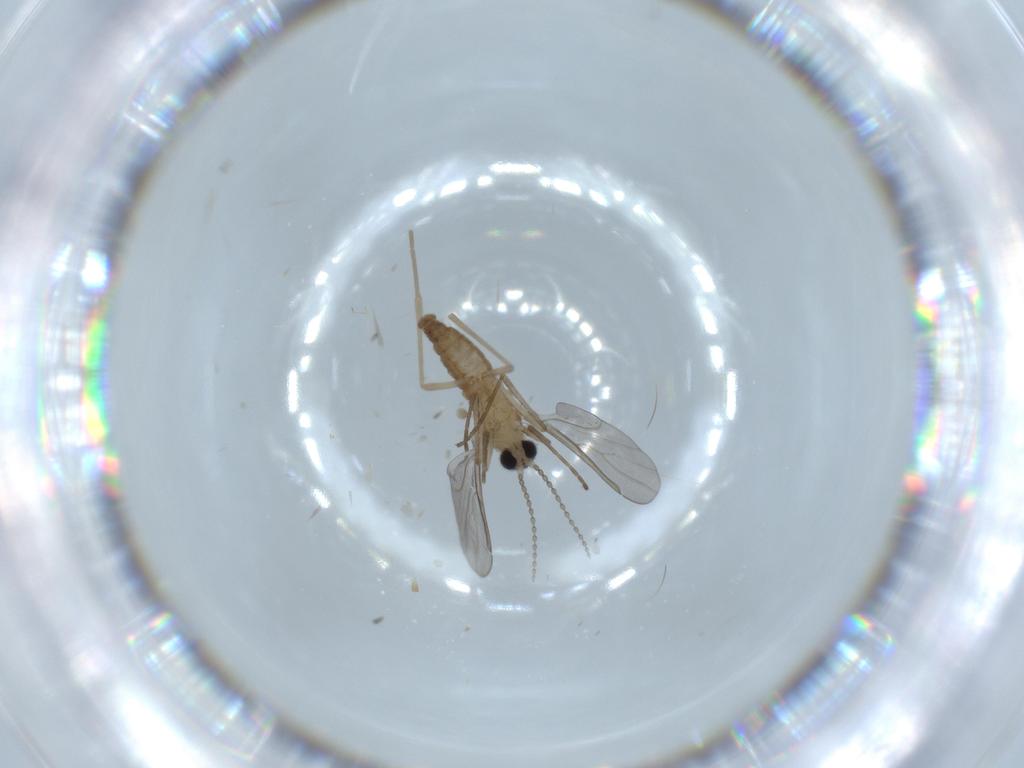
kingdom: Animalia
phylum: Arthropoda
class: Insecta
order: Diptera
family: Cecidomyiidae
